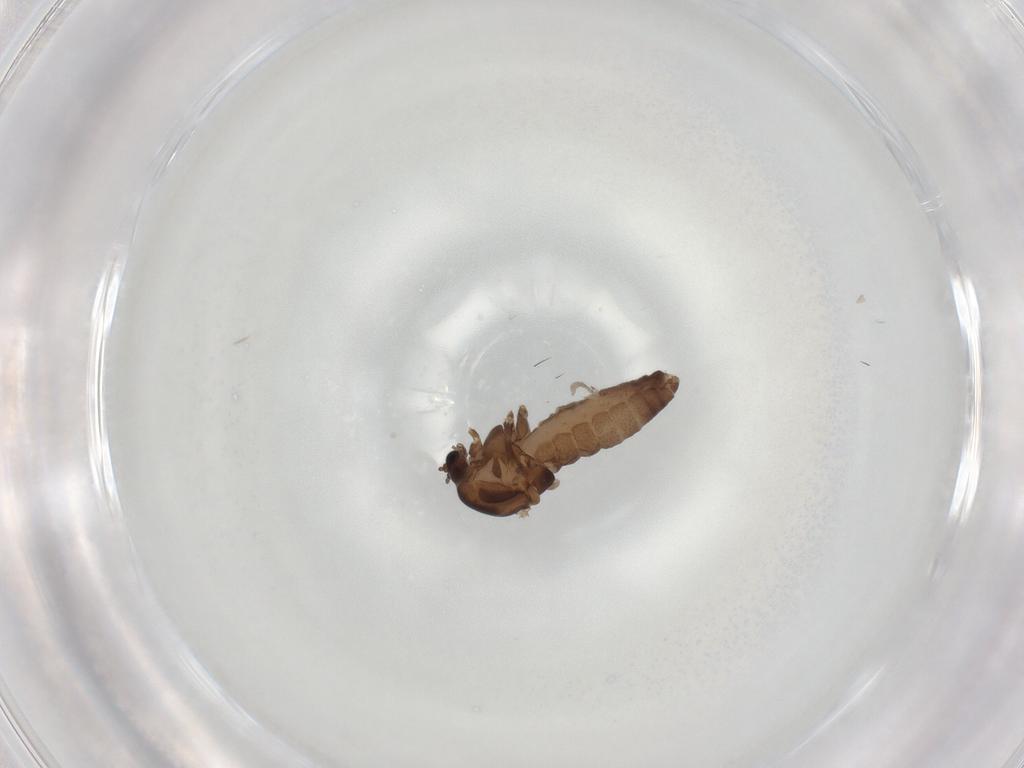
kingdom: Animalia
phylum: Arthropoda
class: Insecta
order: Diptera
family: Chironomidae
